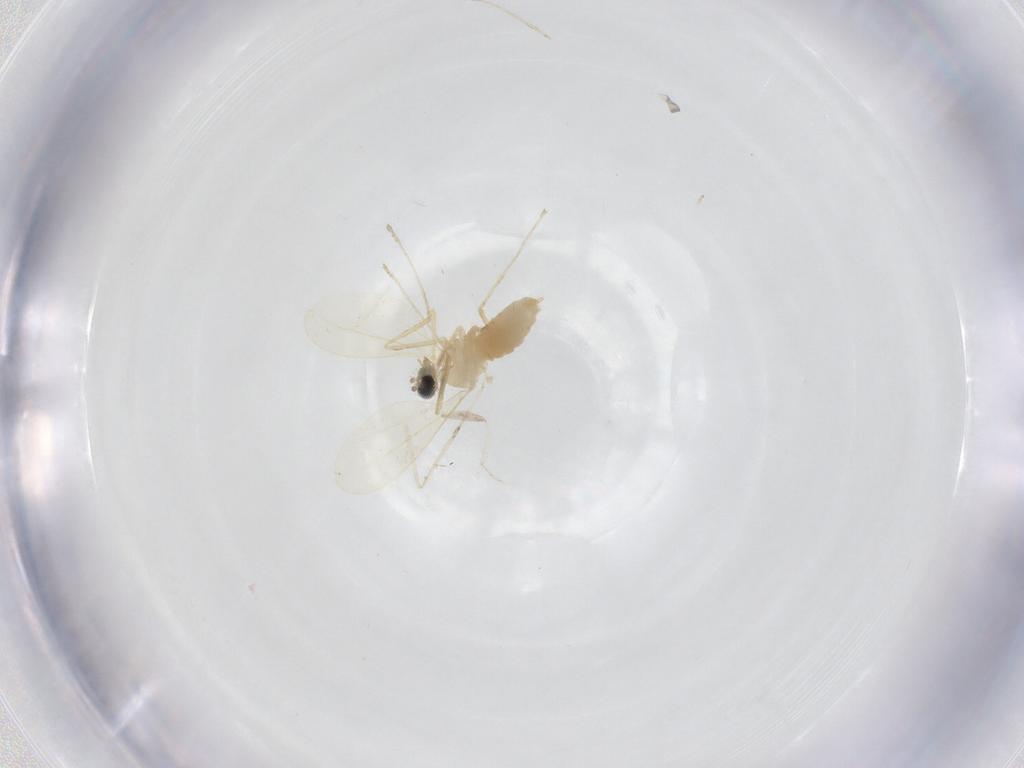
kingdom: Animalia
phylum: Arthropoda
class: Insecta
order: Diptera
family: Cecidomyiidae
